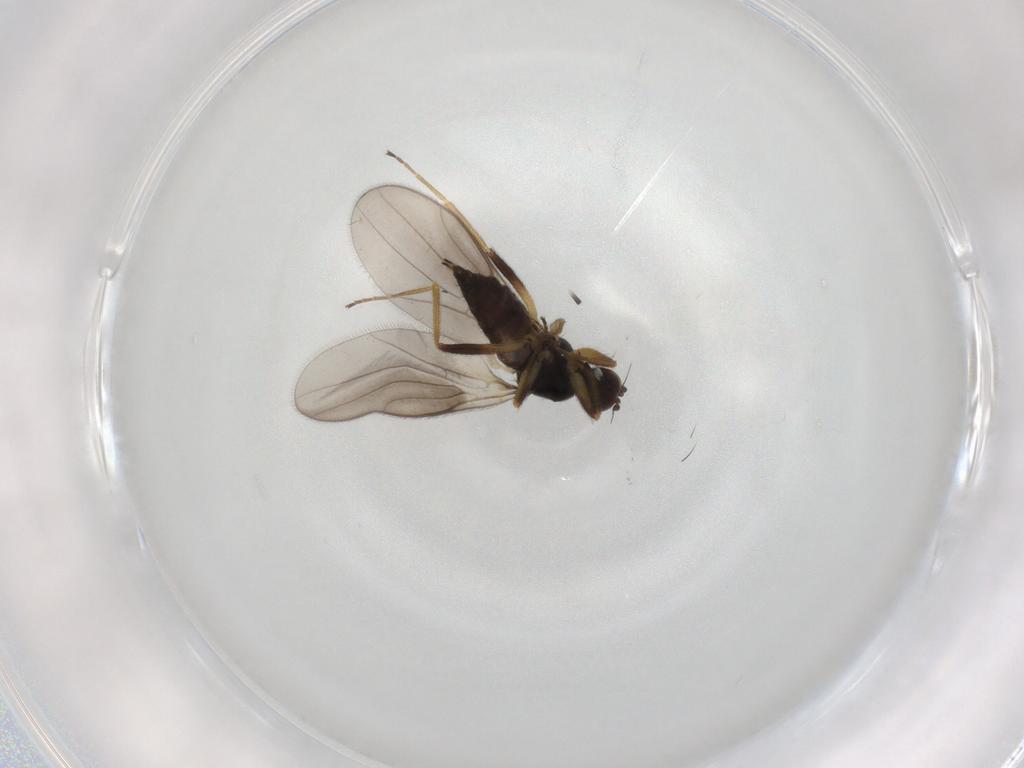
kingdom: Animalia
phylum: Arthropoda
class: Insecta
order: Diptera
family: Hybotidae
